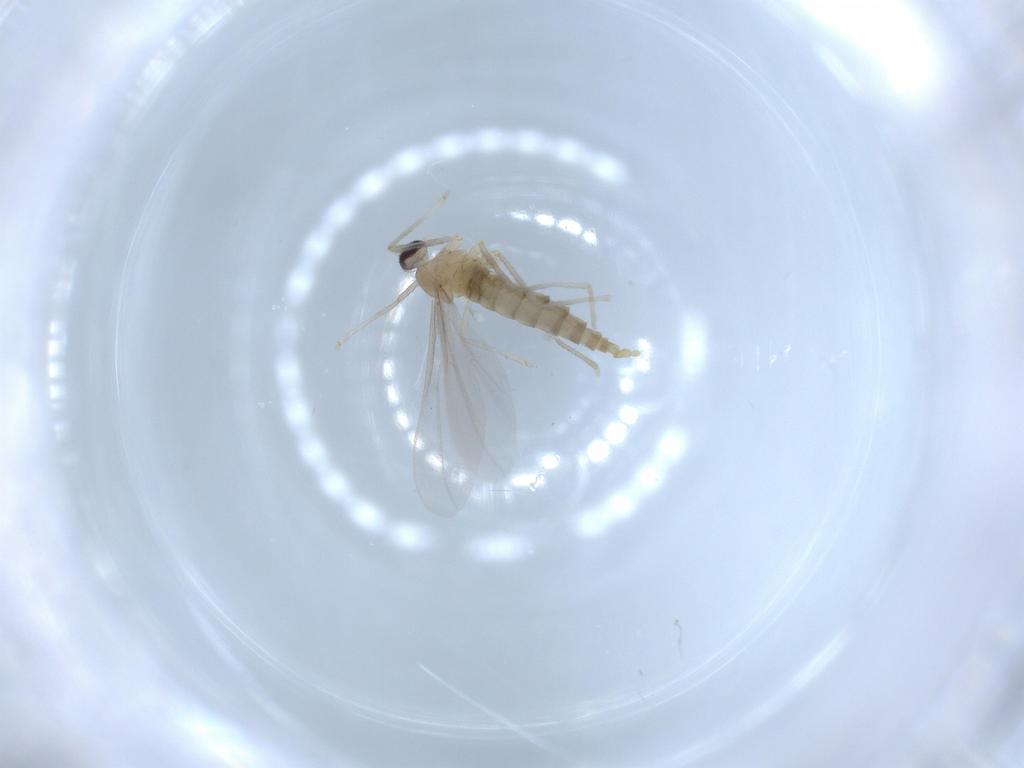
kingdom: Animalia
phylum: Arthropoda
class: Insecta
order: Diptera
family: Cecidomyiidae
